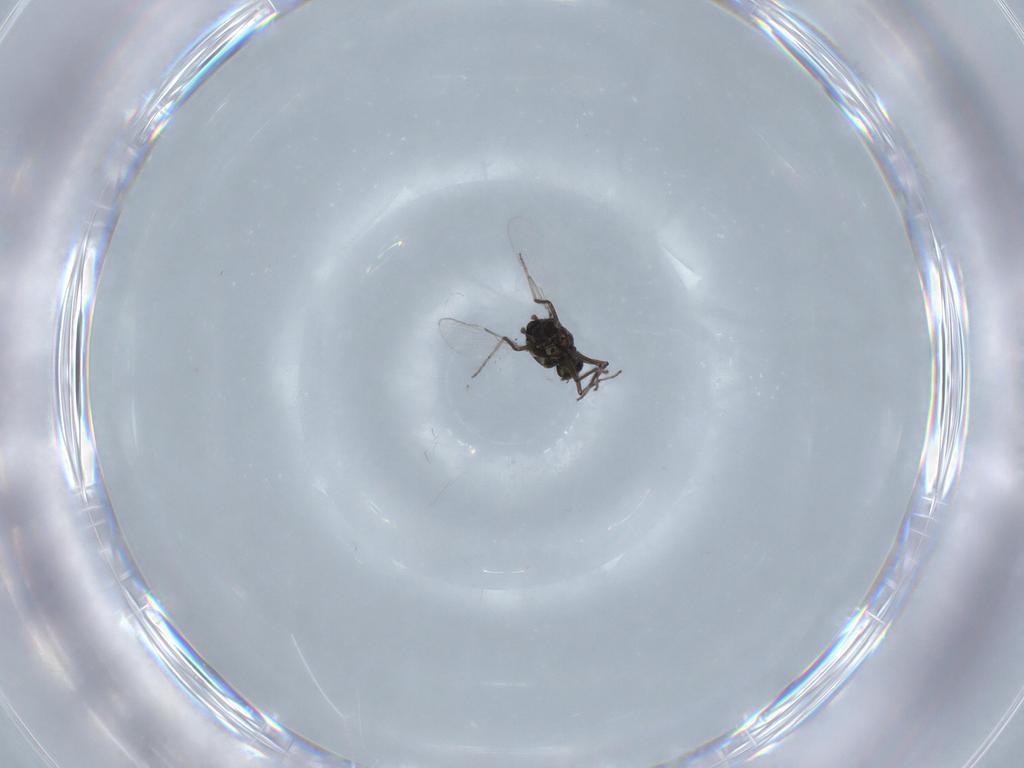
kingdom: Animalia
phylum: Arthropoda
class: Insecta
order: Diptera
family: Ceratopogonidae
